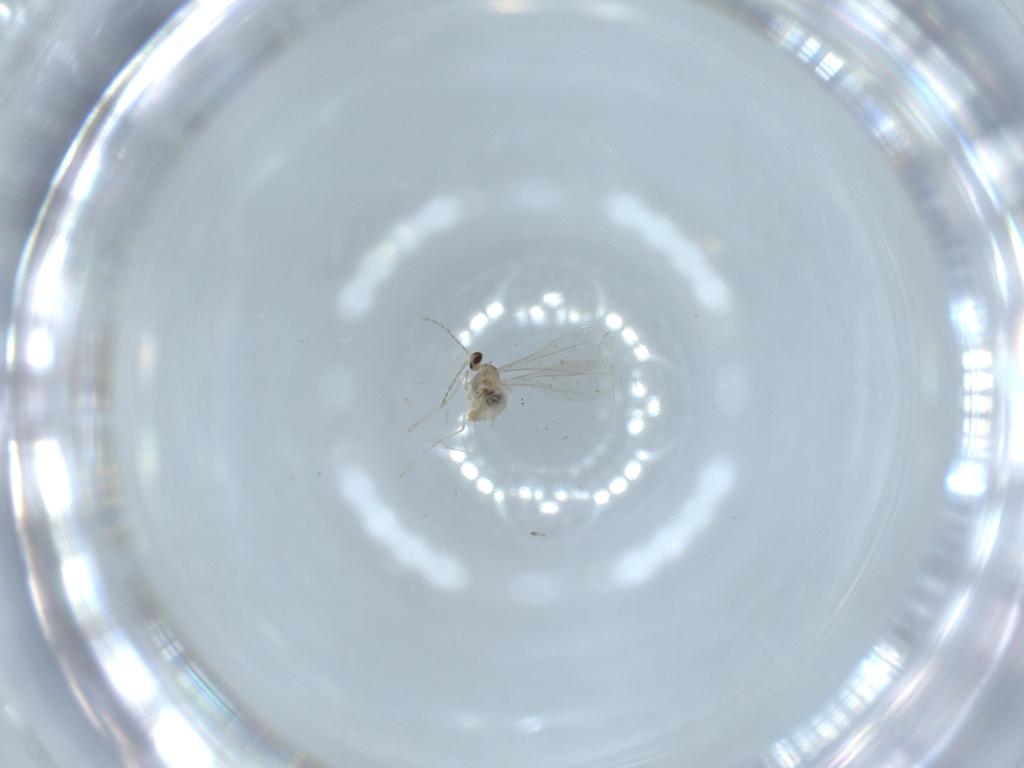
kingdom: Animalia
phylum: Arthropoda
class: Insecta
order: Diptera
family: Cecidomyiidae
